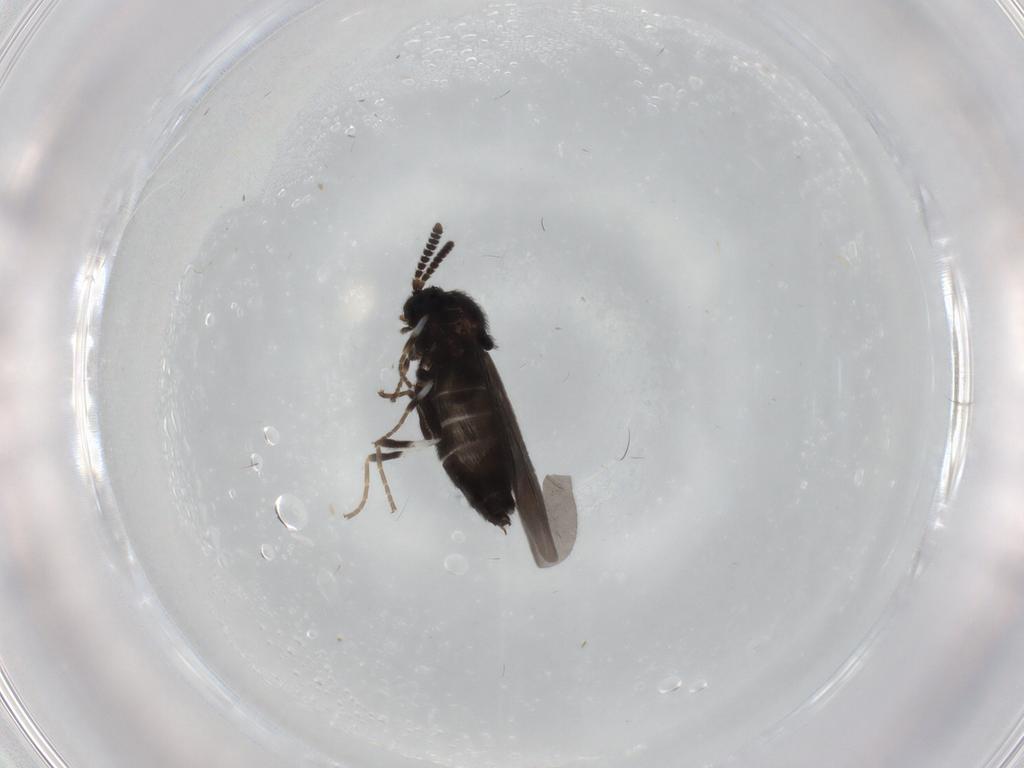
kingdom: Animalia
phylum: Arthropoda
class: Insecta
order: Diptera
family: Scatopsidae
